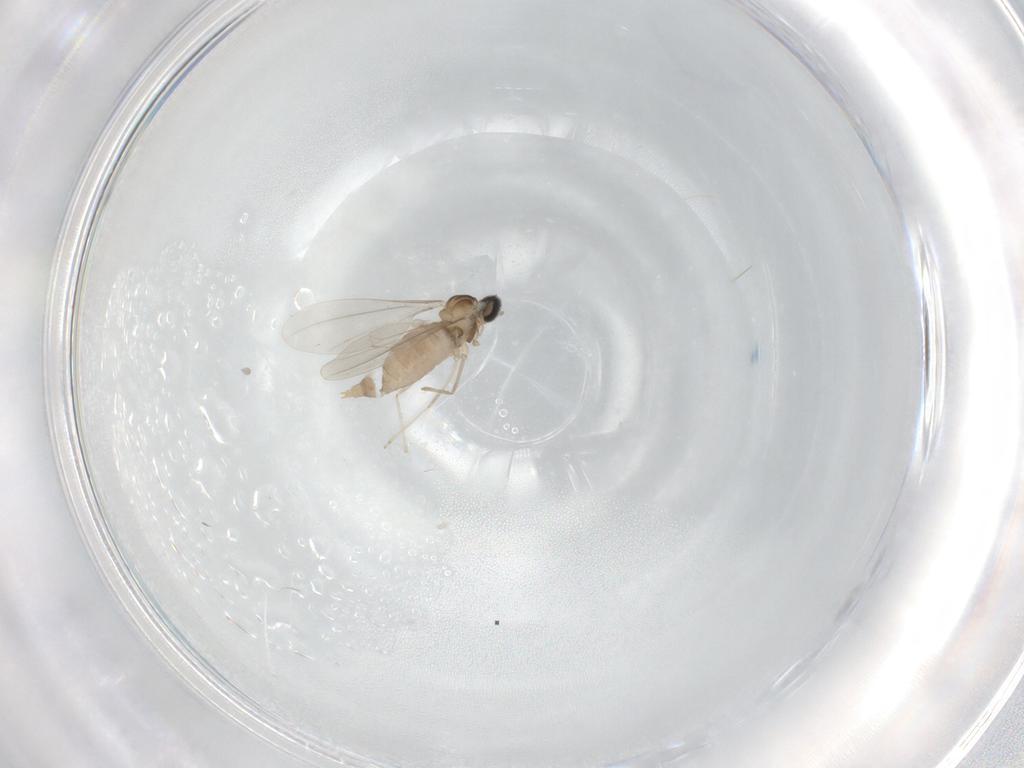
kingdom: Animalia
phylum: Arthropoda
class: Insecta
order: Diptera
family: Cecidomyiidae
